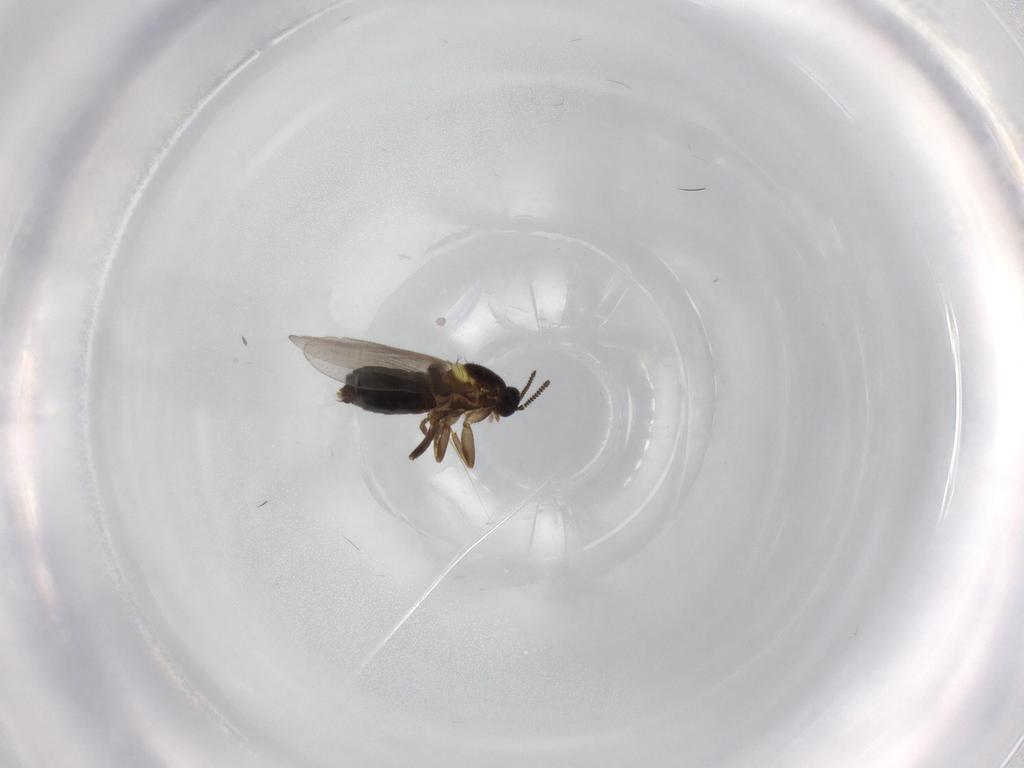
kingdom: Animalia
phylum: Arthropoda
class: Insecta
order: Diptera
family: Scatopsidae
